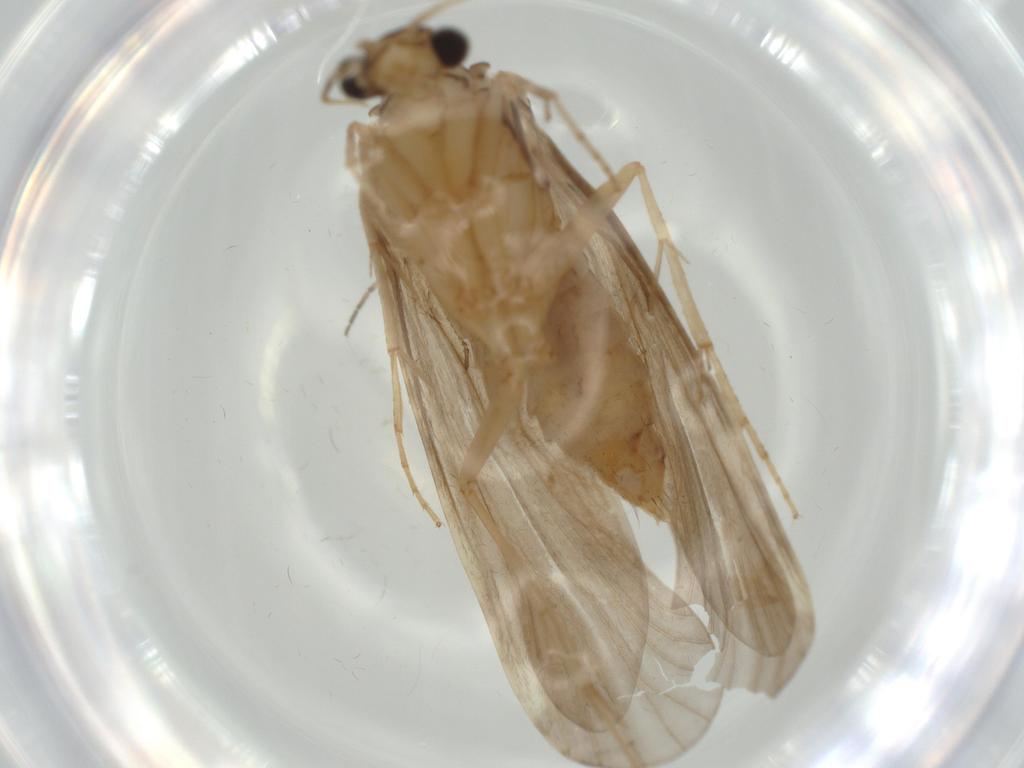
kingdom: Animalia
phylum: Arthropoda
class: Insecta
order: Trichoptera
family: Ecnomidae
